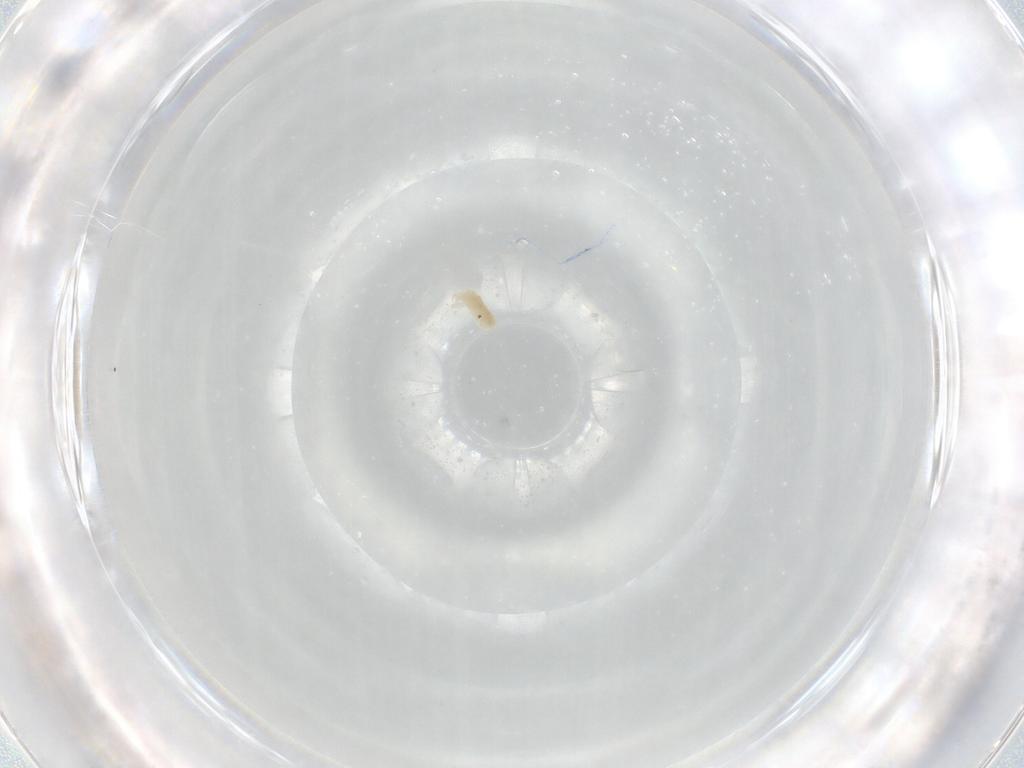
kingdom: Animalia
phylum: Arthropoda
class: Arachnida
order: Trombidiformes
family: Eupodidae
